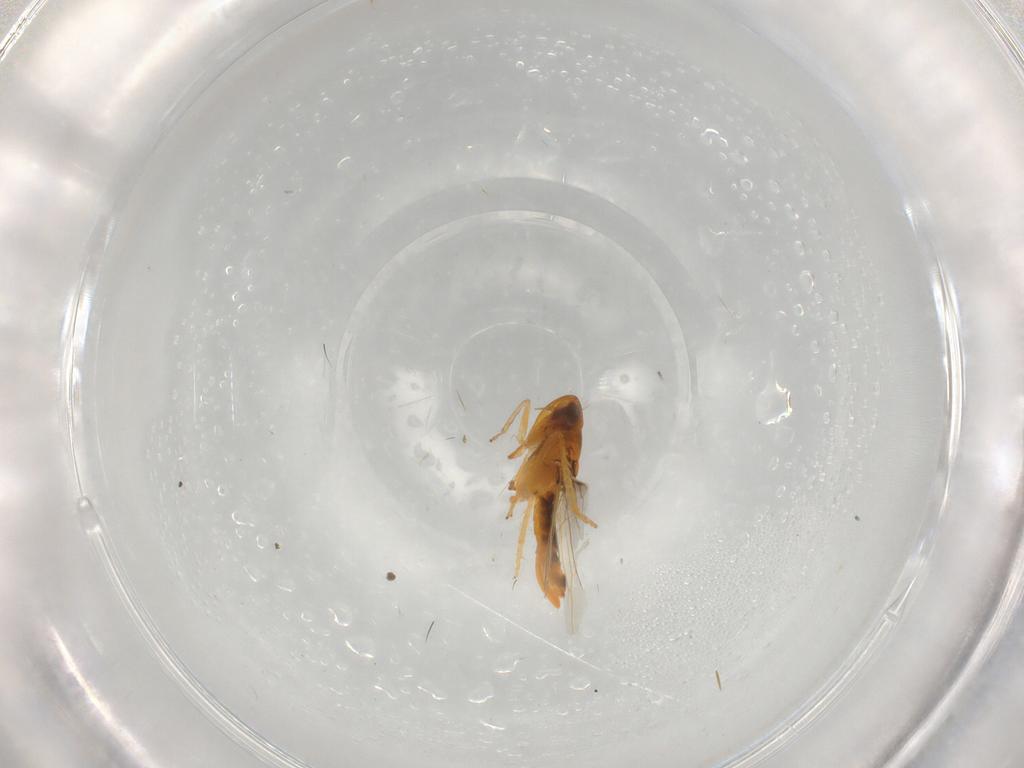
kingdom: Animalia
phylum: Arthropoda
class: Insecta
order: Hemiptera
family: Cicadellidae
